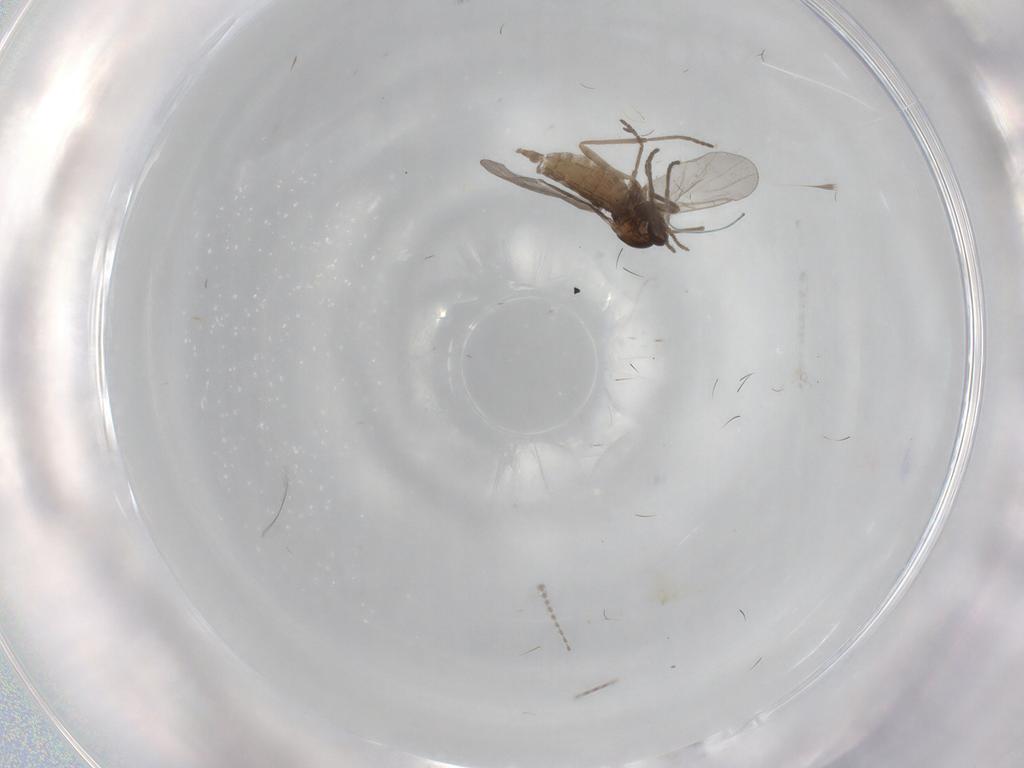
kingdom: Animalia
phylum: Arthropoda
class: Insecta
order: Diptera
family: Cecidomyiidae
